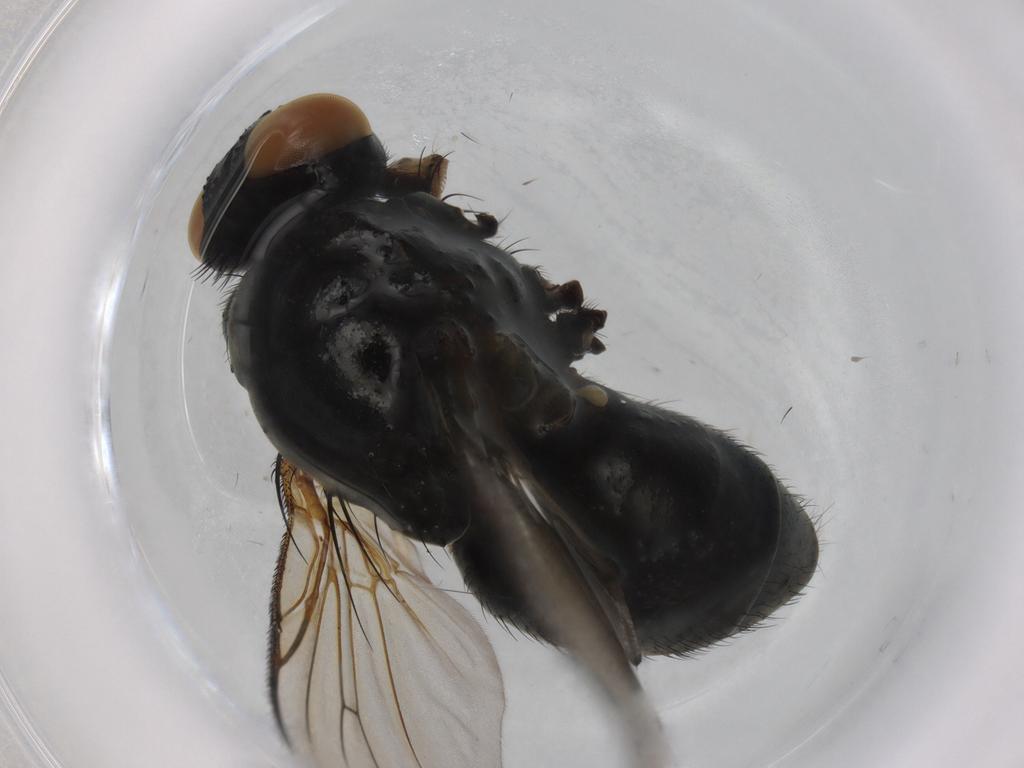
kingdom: Animalia
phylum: Arthropoda
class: Insecta
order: Diptera
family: Muscidae
